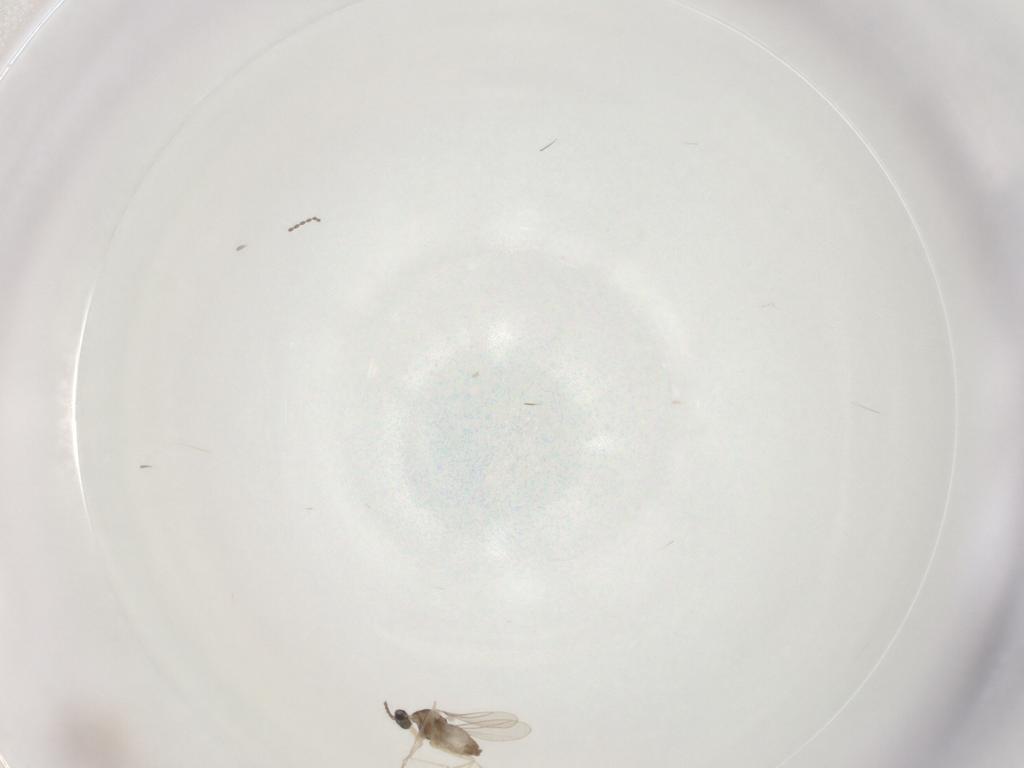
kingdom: Animalia
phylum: Arthropoda
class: Insecta
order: Diptera
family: Cecidomyiidae
